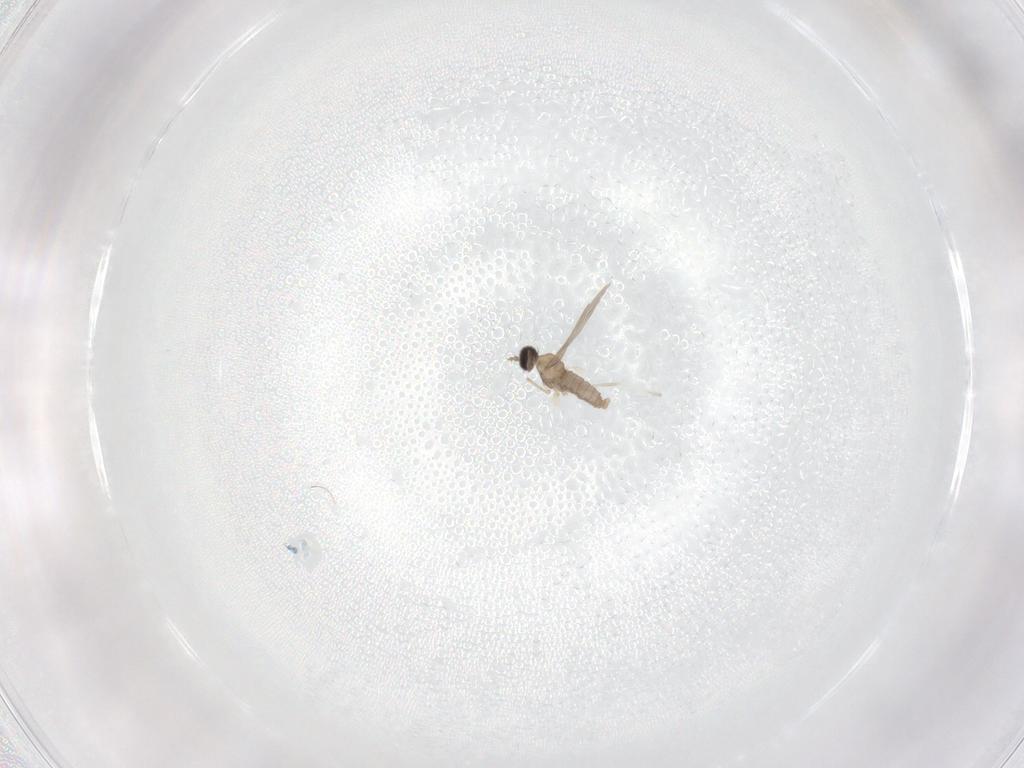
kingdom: Animalia
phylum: Arthropoda
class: Insecta
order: Diptera
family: Cecidomyiidae
